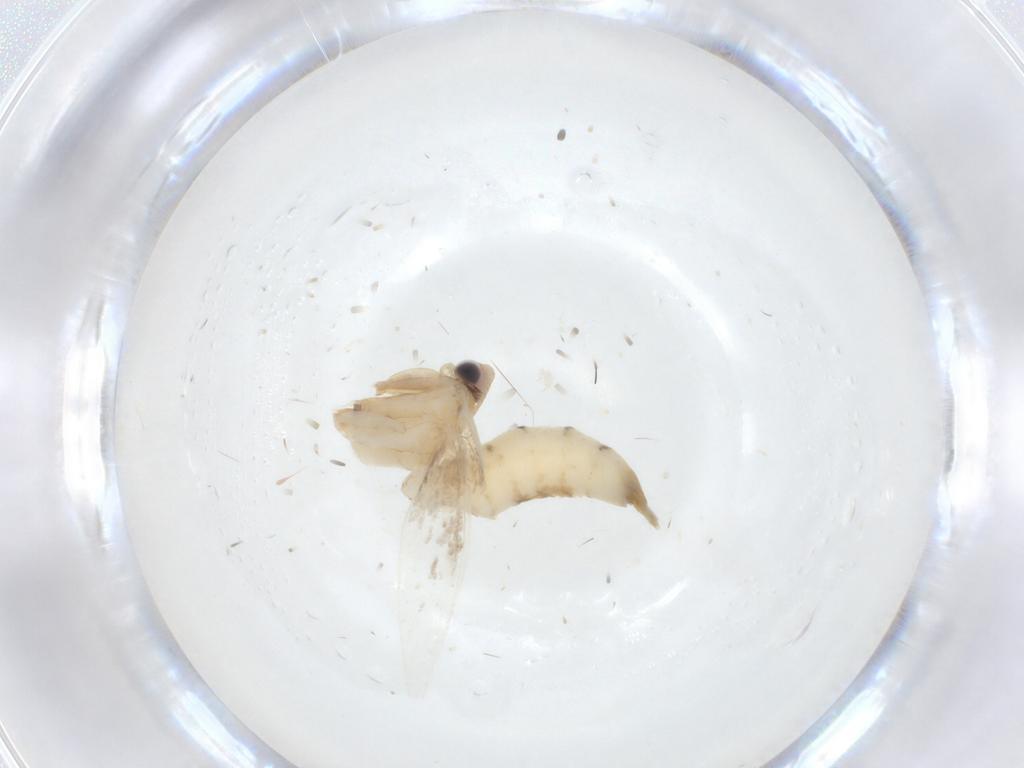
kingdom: Animalia
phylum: Arthropoda
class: Insecta
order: Lepidoptera
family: Tineidae
